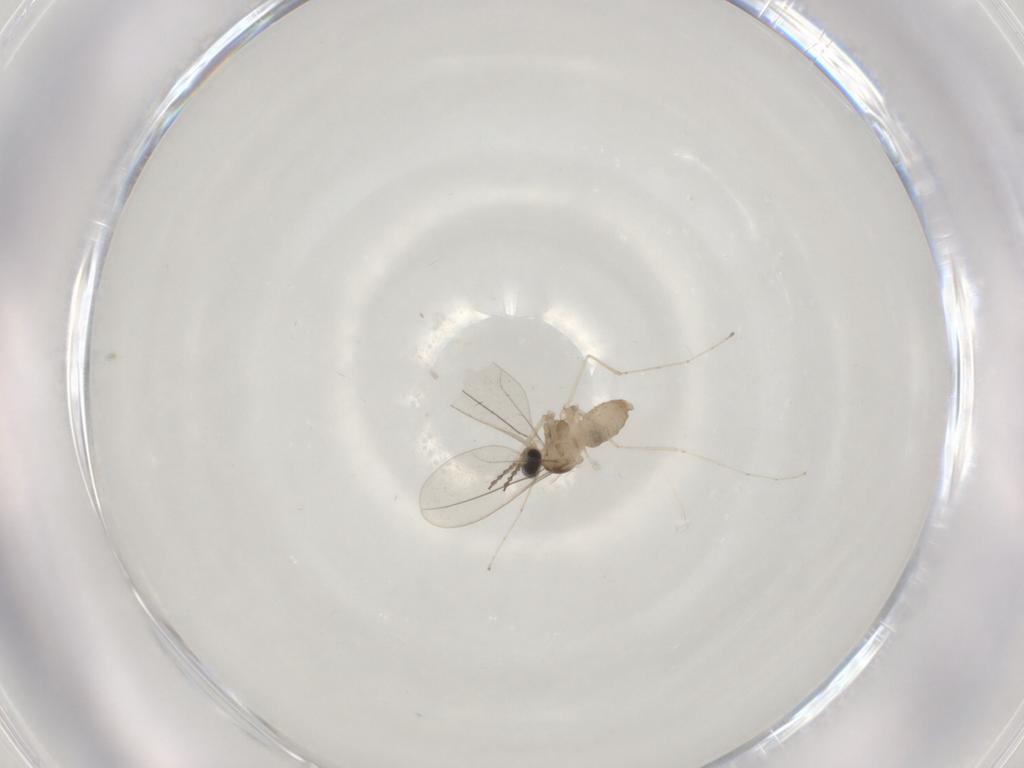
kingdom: Animalia
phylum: Arthropoda
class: Insecta
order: Diptera
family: Cecidomyiidae
